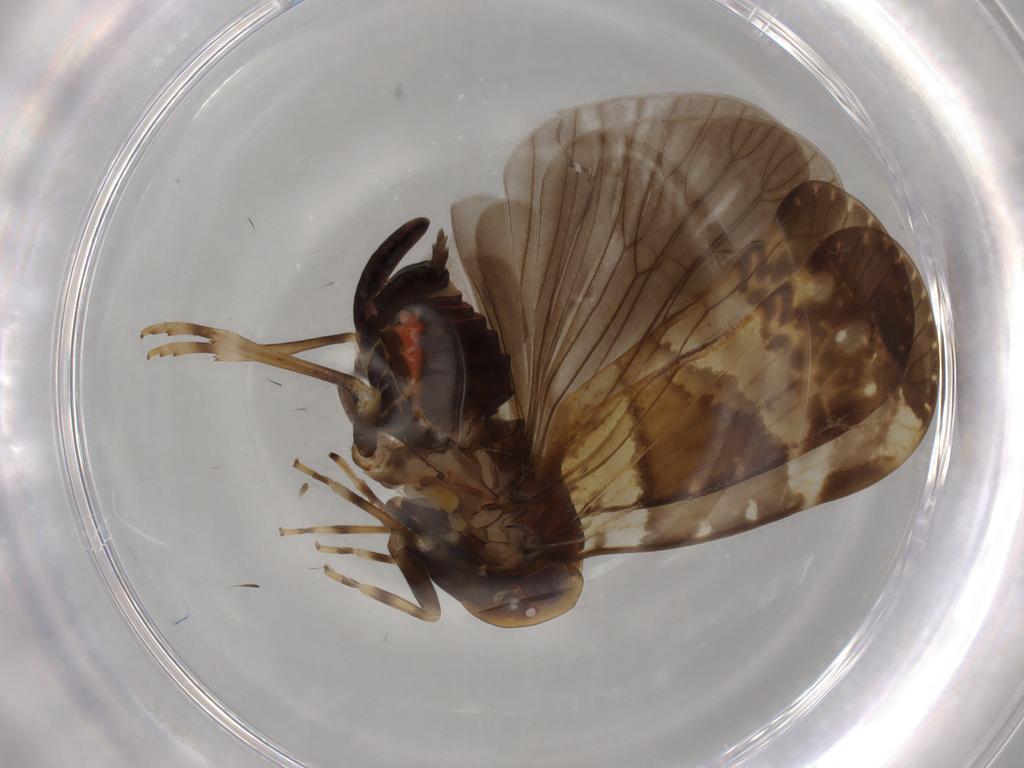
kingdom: Animalia
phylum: Arthropoda
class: Insecta
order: Hemiptera
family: Cixiidae
